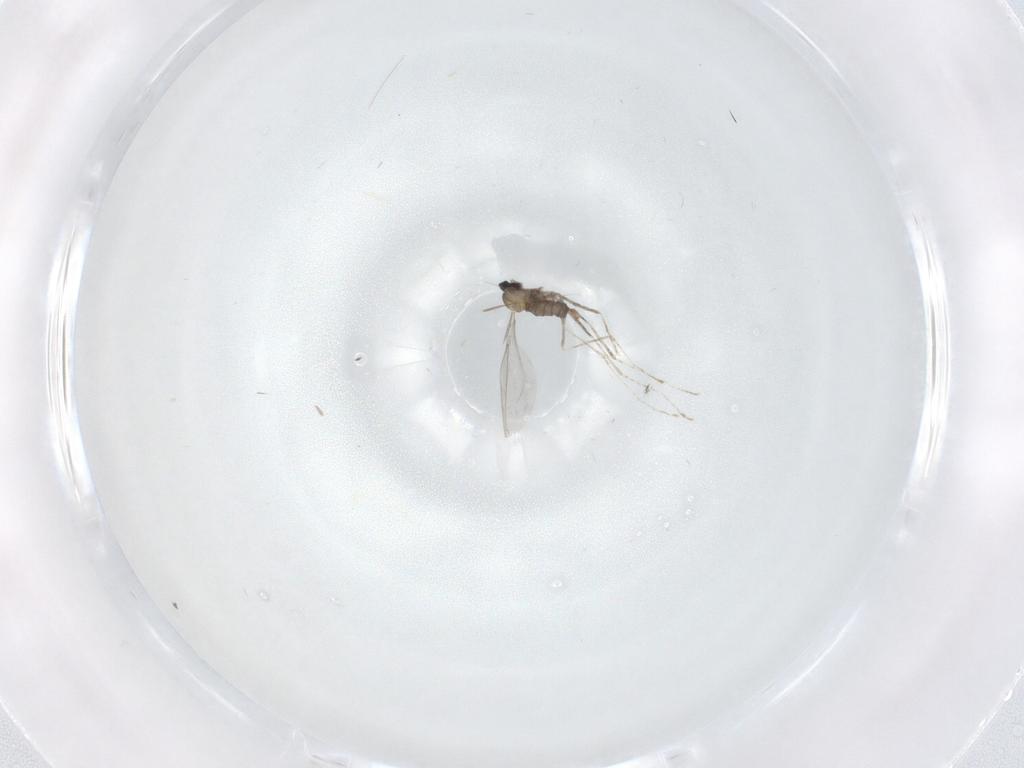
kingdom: Animalia
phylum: Arthropoda
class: Insecta
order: Diptera
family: Cecidomyiidae
